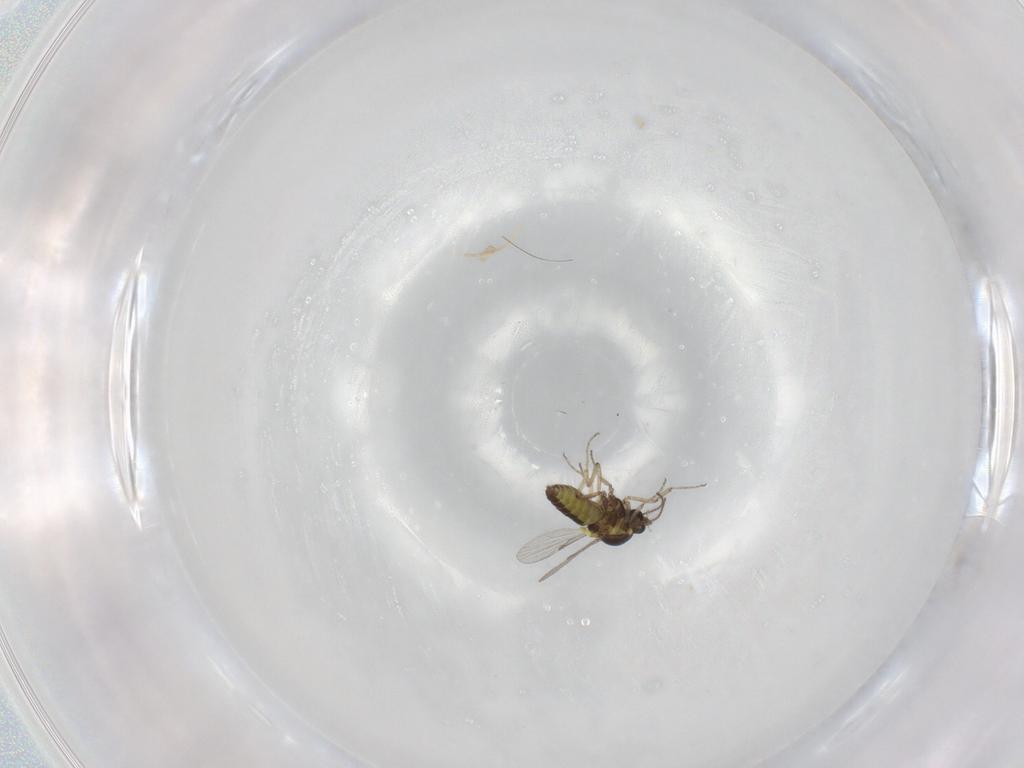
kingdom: Animalia
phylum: Arthropoda
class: Insecta
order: Diptera
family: Ceratopogonidae
